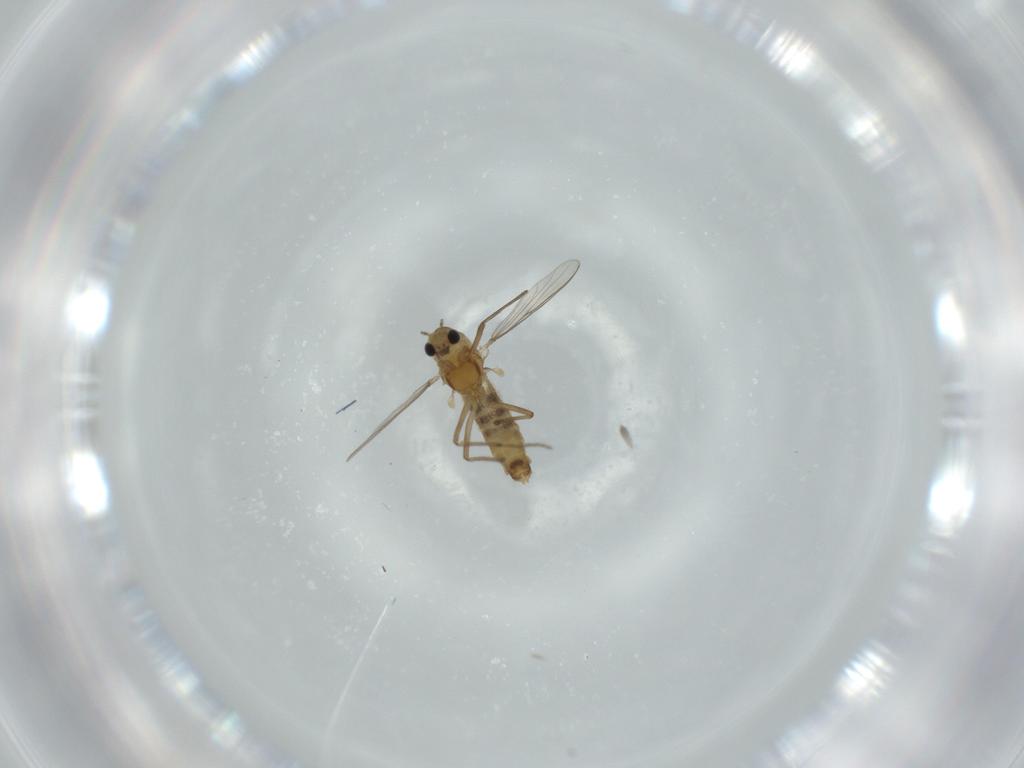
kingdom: Animalia
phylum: Arthropoda
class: Insecta
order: Diptera
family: Chironomidae
